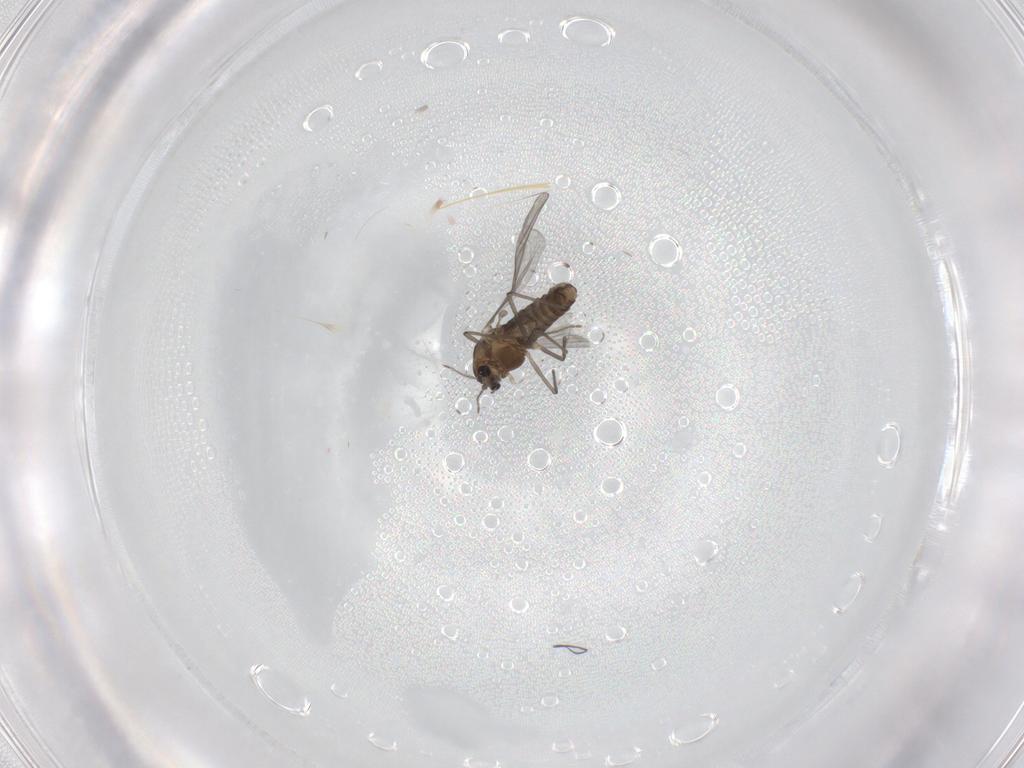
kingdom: Animalia
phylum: Arthropoda
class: Insecta
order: Diptera
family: Chironomidae
